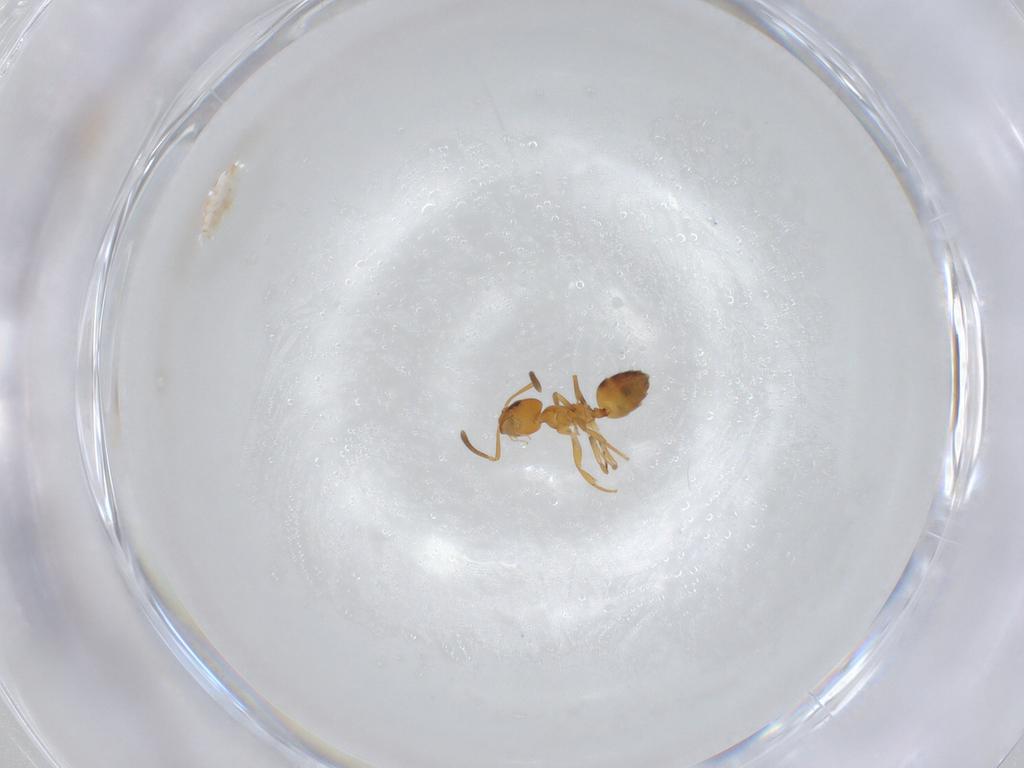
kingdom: Animalia
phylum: Arthropoda
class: Insecta
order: Hymenoptera
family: Formicidae
